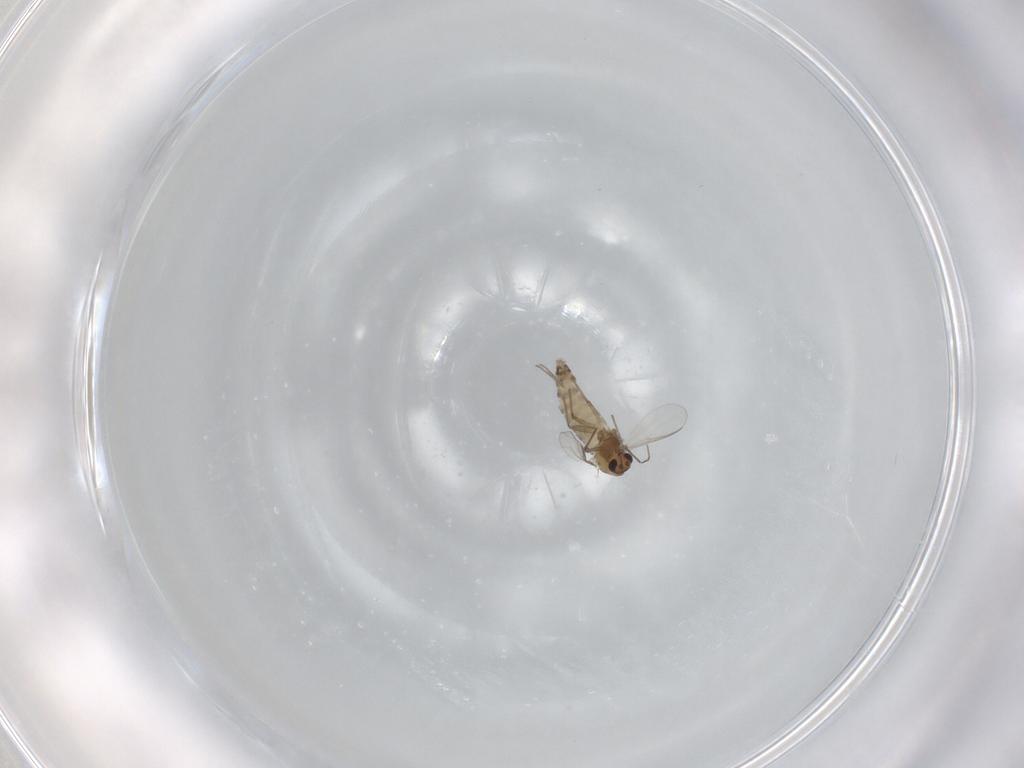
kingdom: Animalia
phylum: Arthropoda
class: Insecta
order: Diptera
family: Chironomidae
